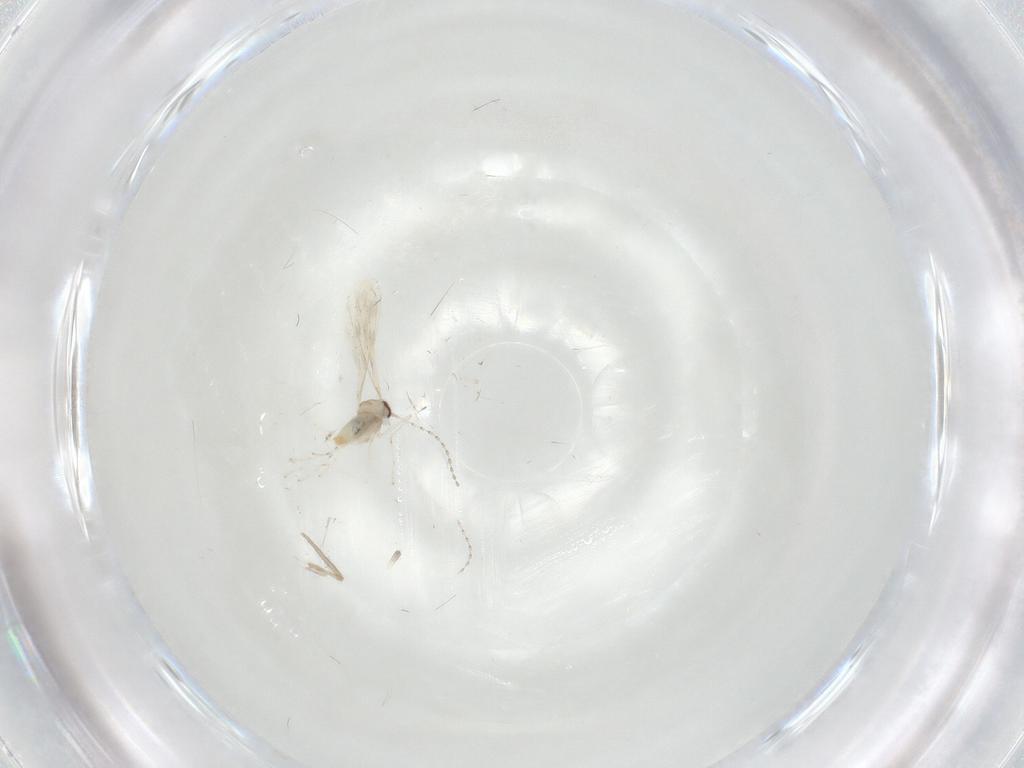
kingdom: Animalia
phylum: Arthropoda
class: Insecta
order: Diptera
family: Cecidomyiidae
